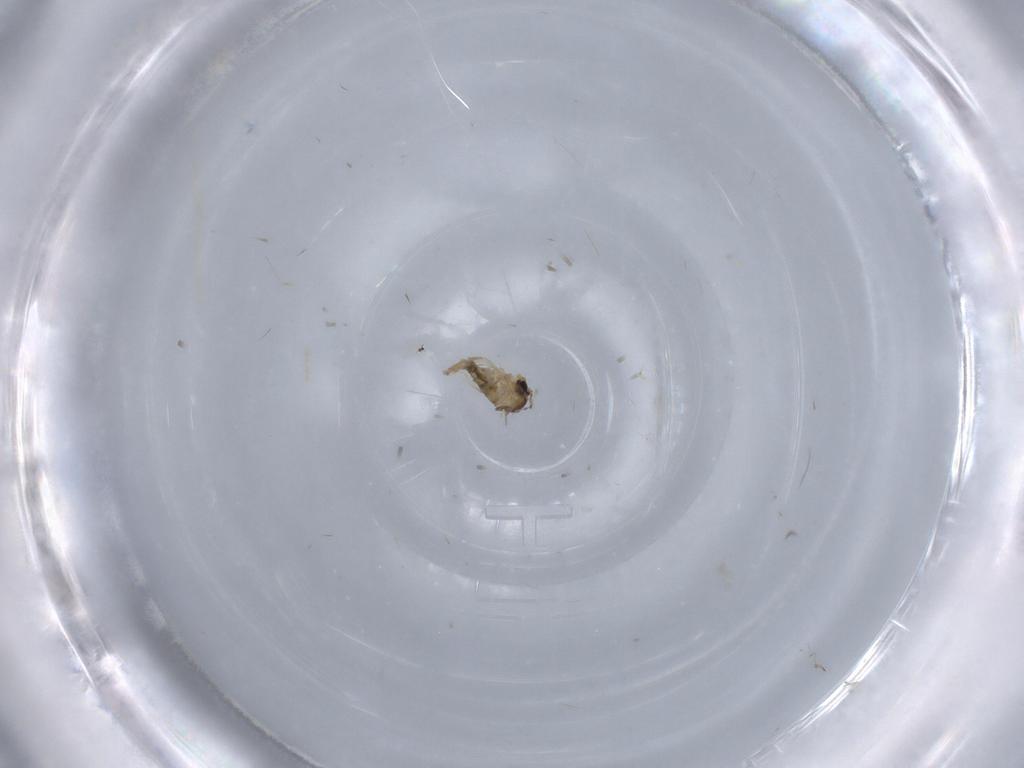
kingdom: Animalia
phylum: Arthropoda
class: Insecta
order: Diptera
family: Cecidomyiidae
